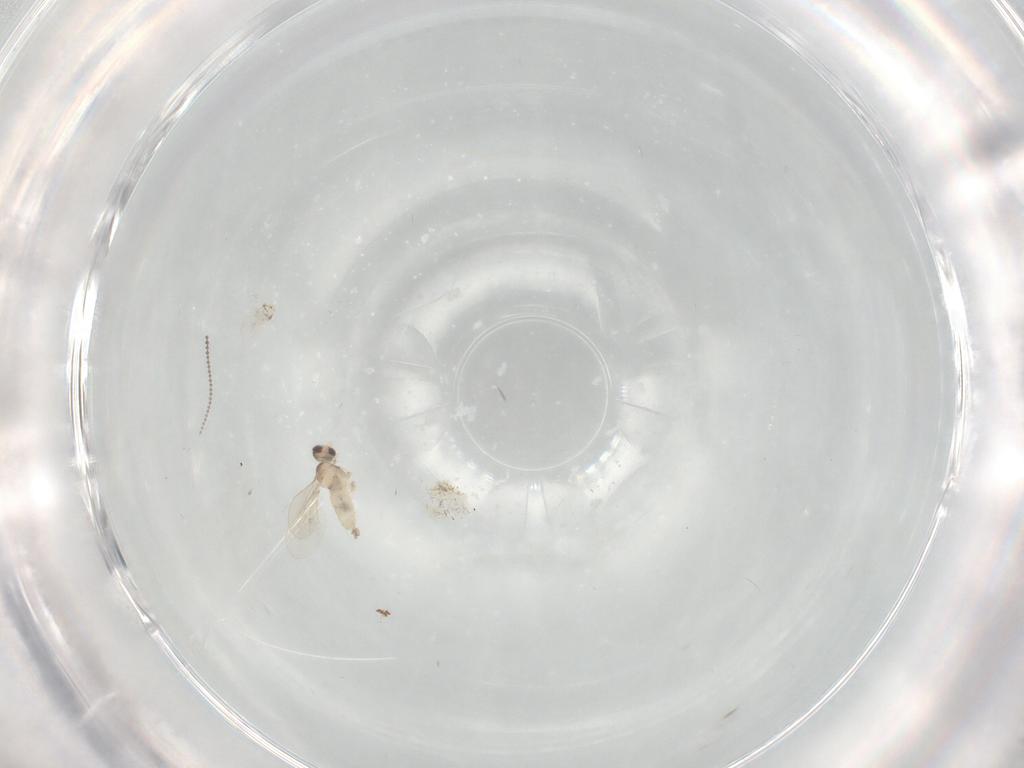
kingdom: Animalia
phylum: Arthropoda
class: Insecta
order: Diptera
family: Cecidomyiidae
